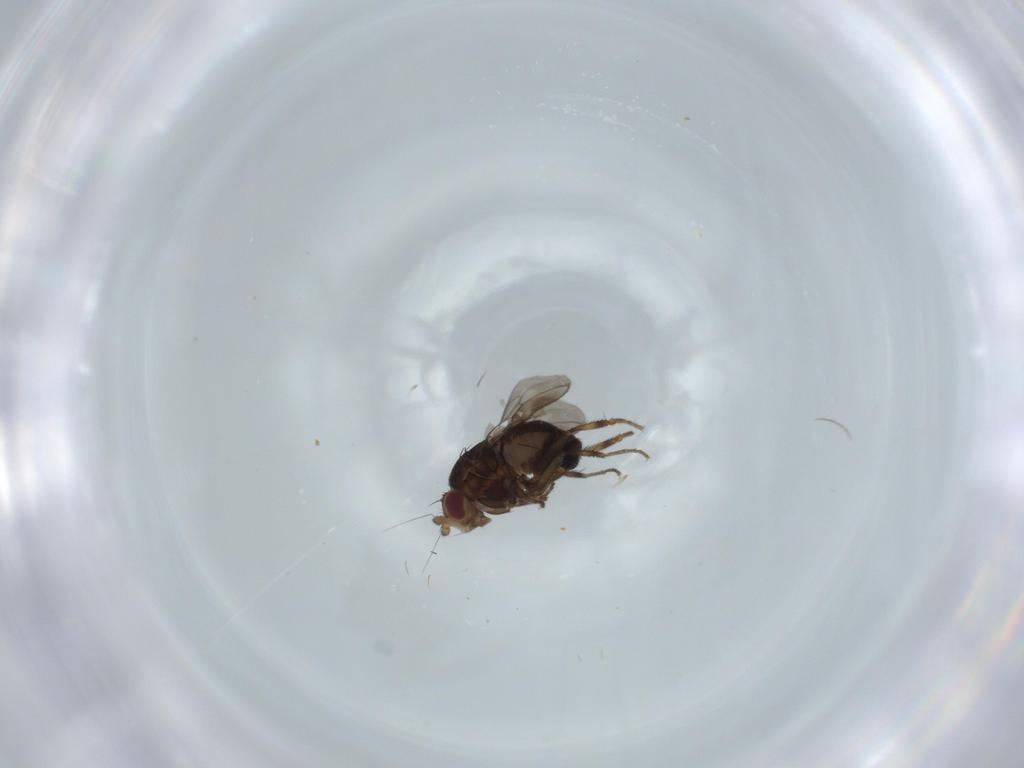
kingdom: Animalia
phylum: Arthropoda
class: Insecta
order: Diptera
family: Sphaeroceridae
